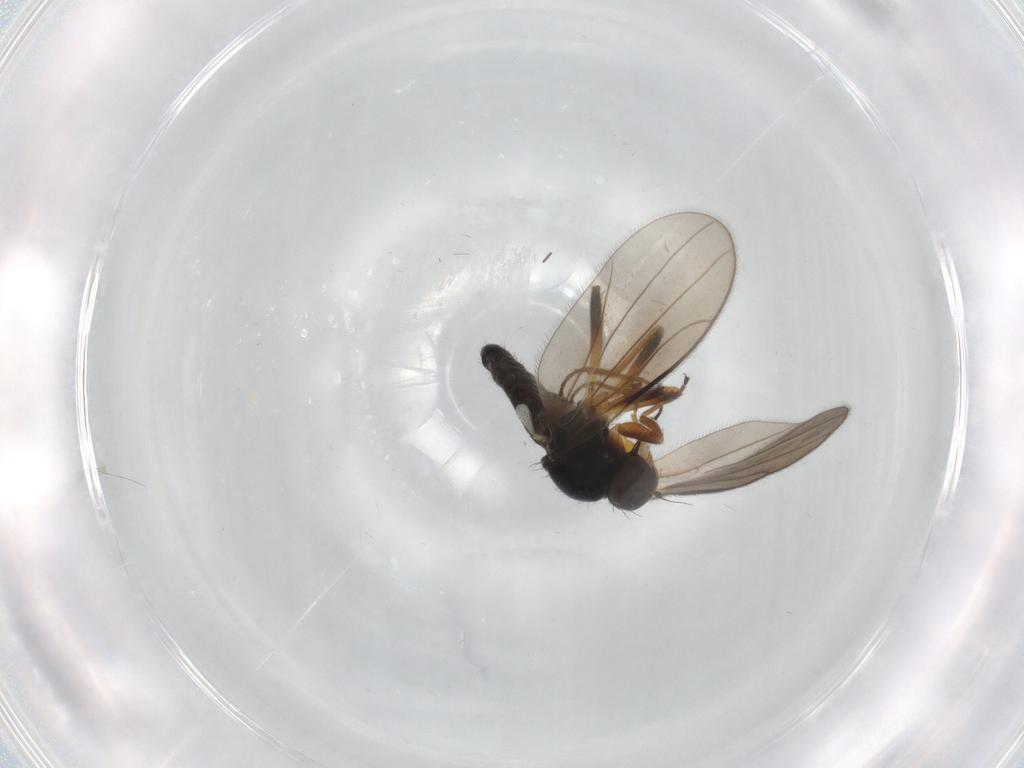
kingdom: Animalia
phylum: Arthropoda
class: Insecta
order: Diptera
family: Hybotidae
